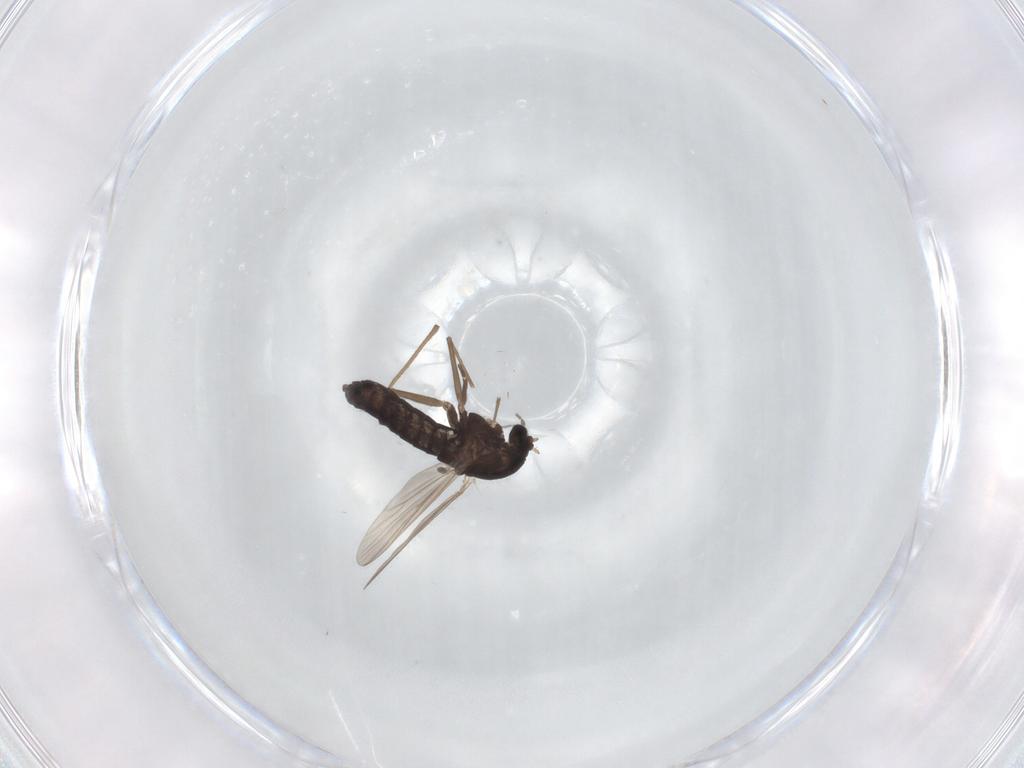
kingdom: Animalia
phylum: Arthropoda
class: Insecta
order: Diptera
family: Chironomidae
